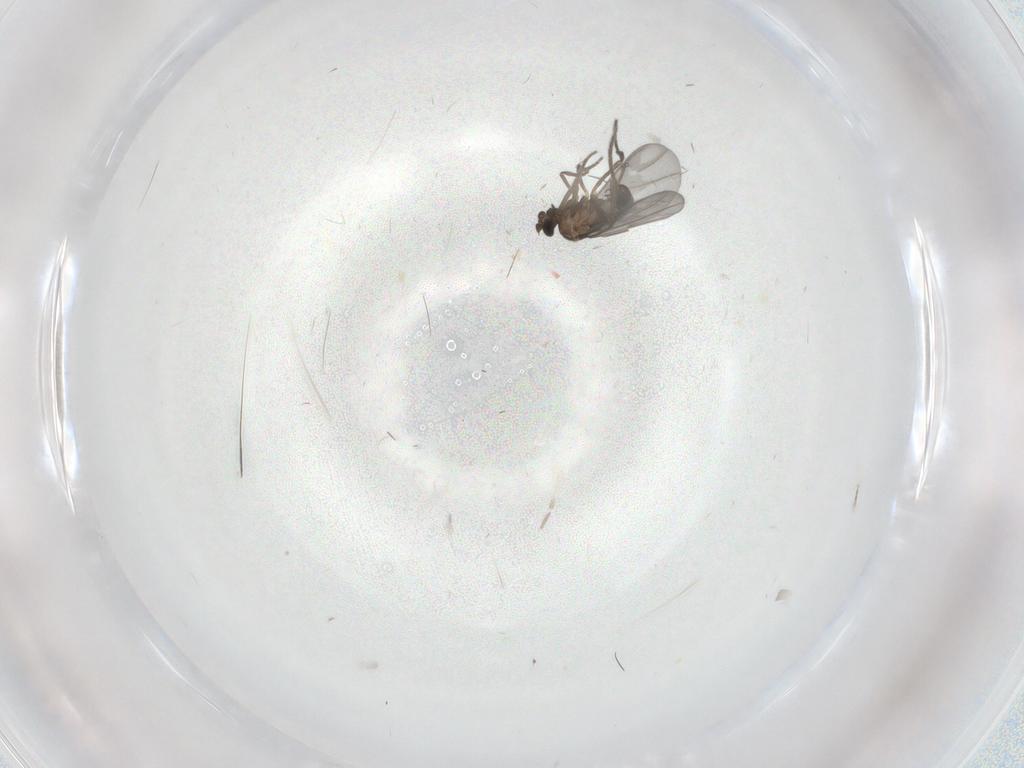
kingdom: Animalia
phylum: Arthropoda
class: Insecta
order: Diptera
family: Phoridae
